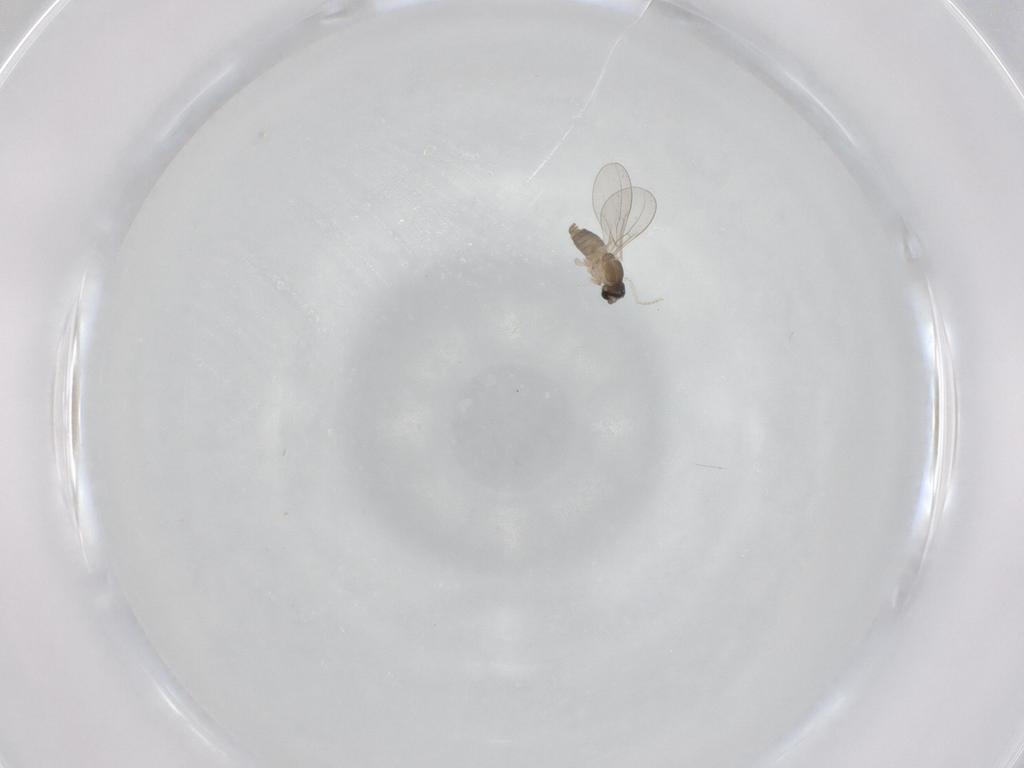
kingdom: Animalia
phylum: Arthropoda
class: Insecta
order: Diptera
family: Cecidomyiidae
